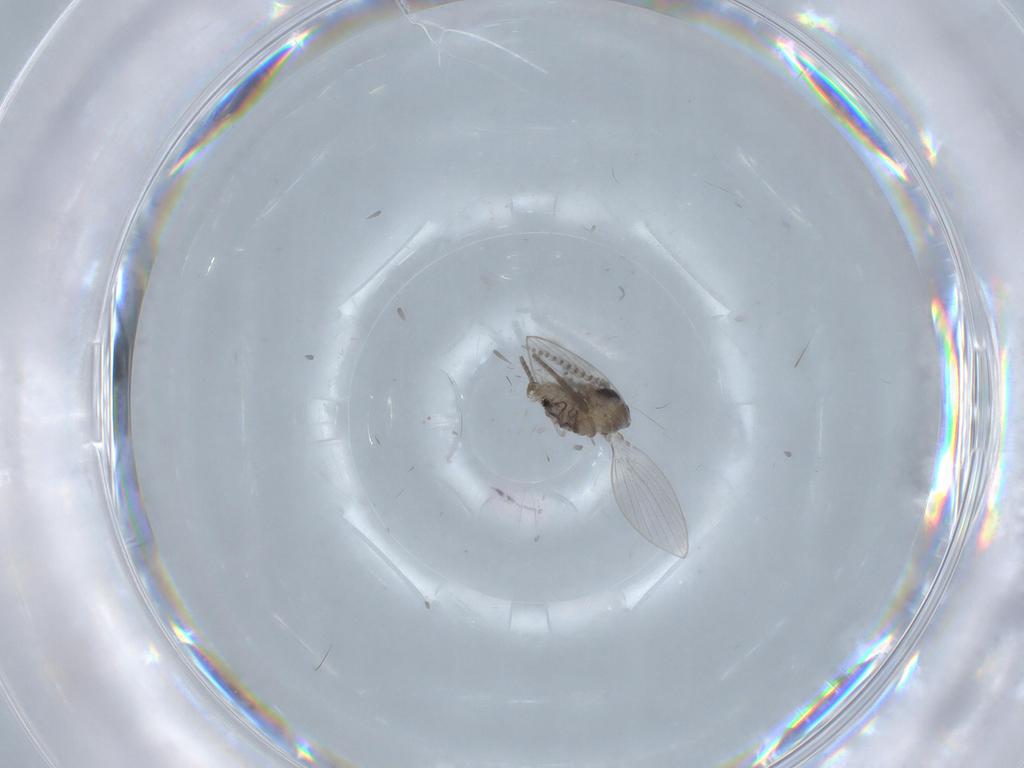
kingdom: Animalia
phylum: Arthropoda
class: Insecta
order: Diptera
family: Psychodidae
